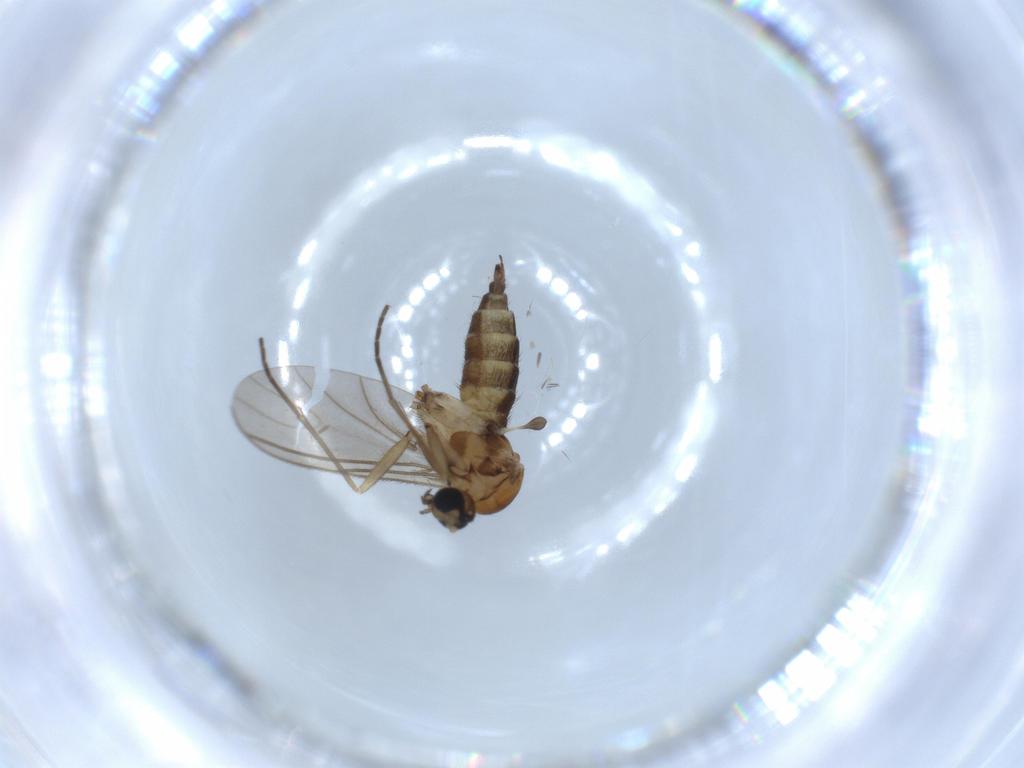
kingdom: Animalia
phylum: Arthropoda
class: Insecta
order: Diptera
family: Sciaridae
